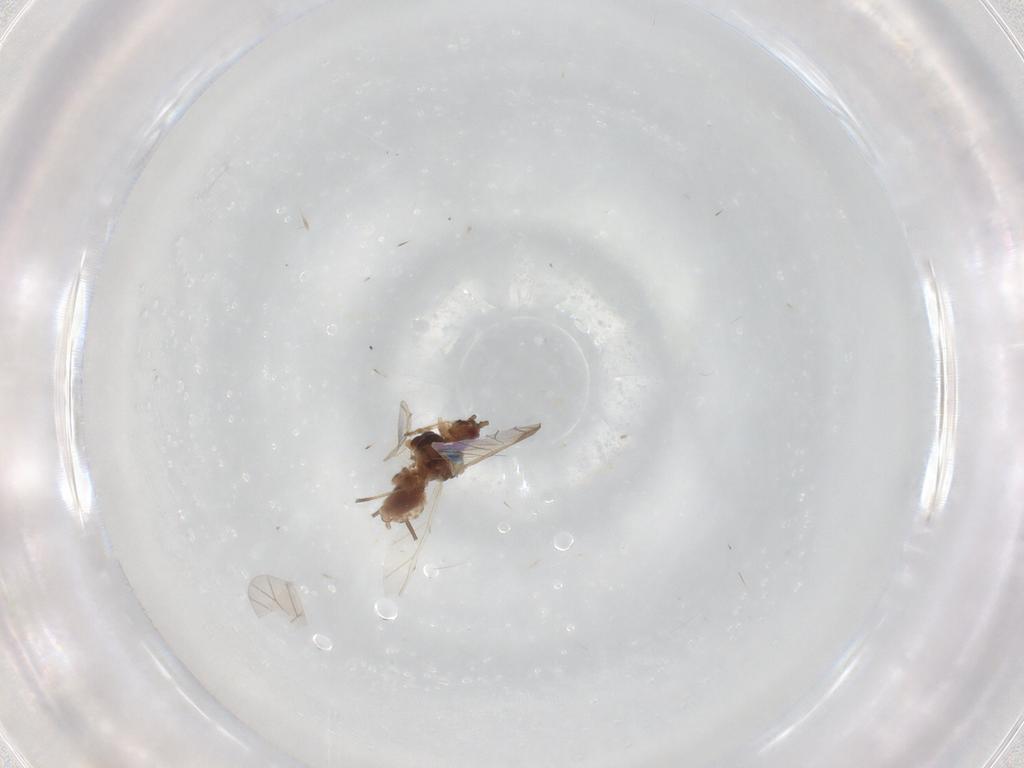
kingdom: Animalia
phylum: Arthropoda
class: Insecta
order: Hemiptera
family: Aphididae
